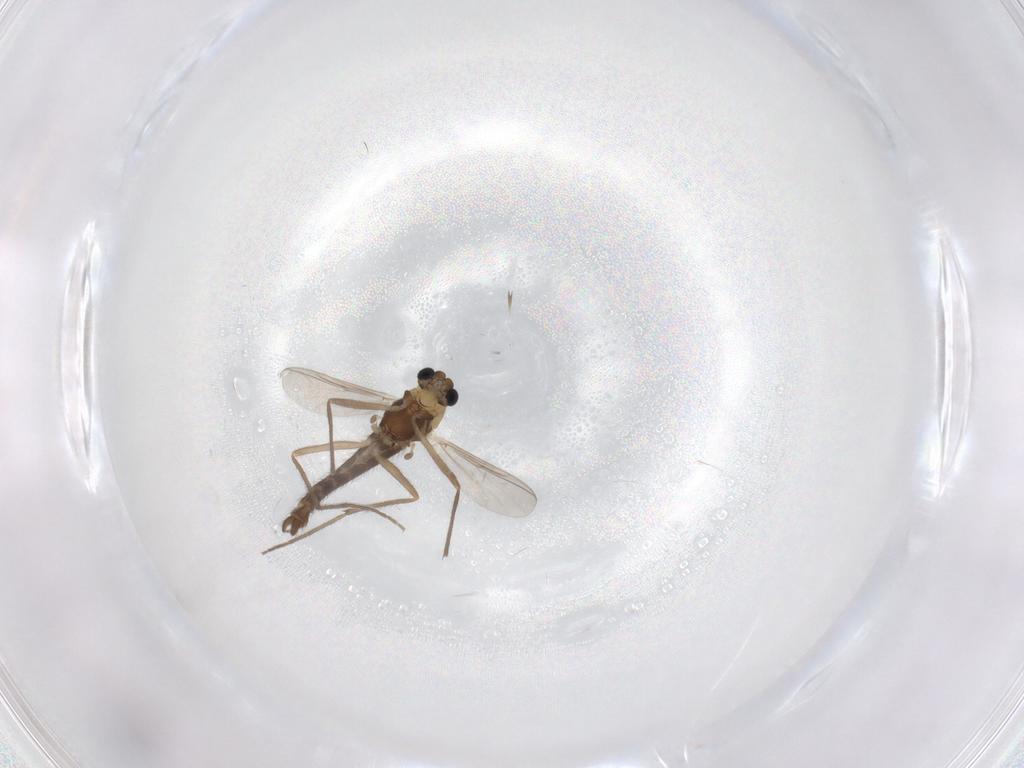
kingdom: Animalia
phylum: Arthropoda
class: Insecta
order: Diptera
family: Chironomidae
